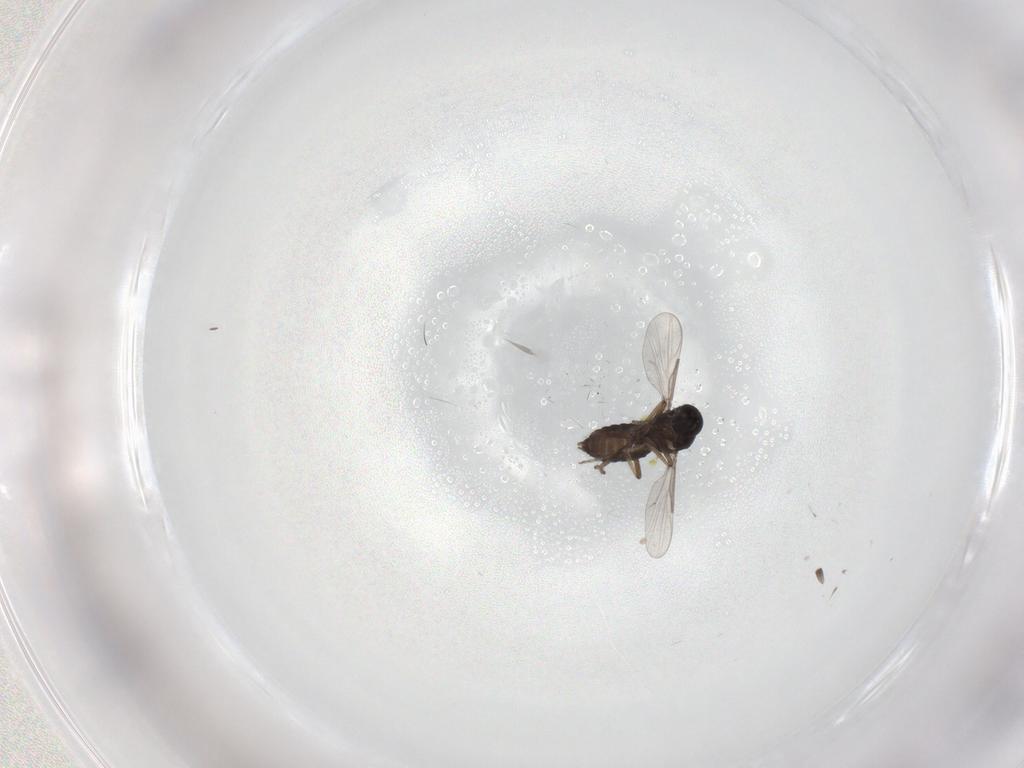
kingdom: Animalia
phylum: Arthropoda
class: Insecta
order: Diptera
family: Ceratopogonidae
